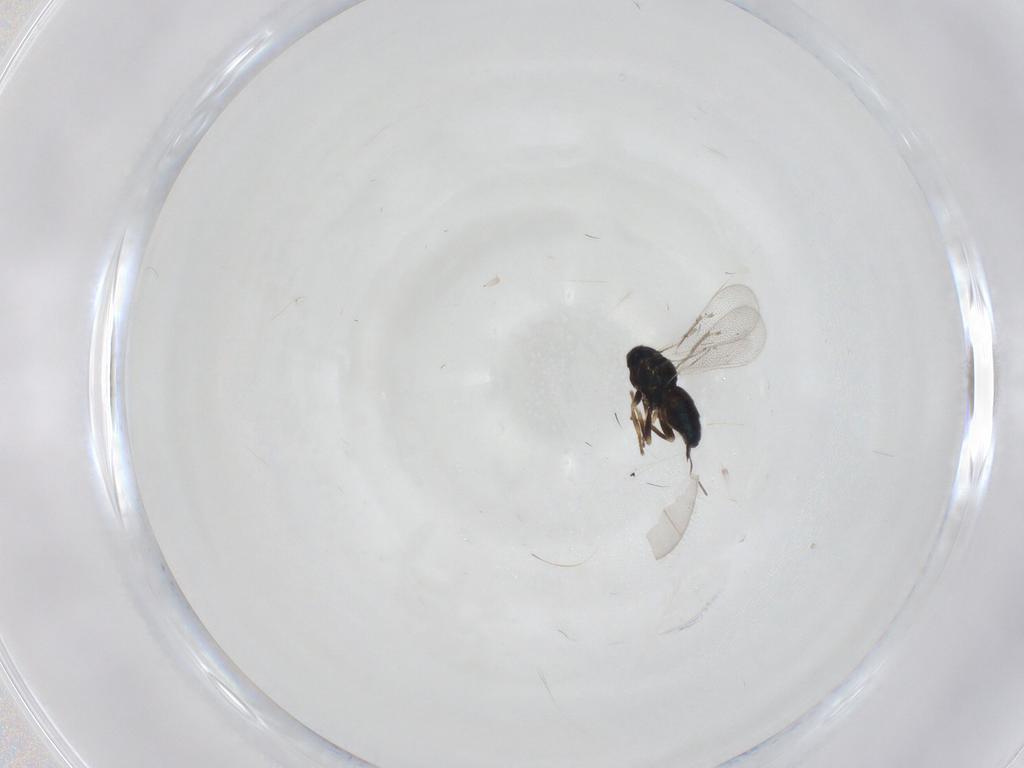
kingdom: Animalia
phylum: Arthropoda
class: Insecta
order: Hymenoptera
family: Eulophidae
